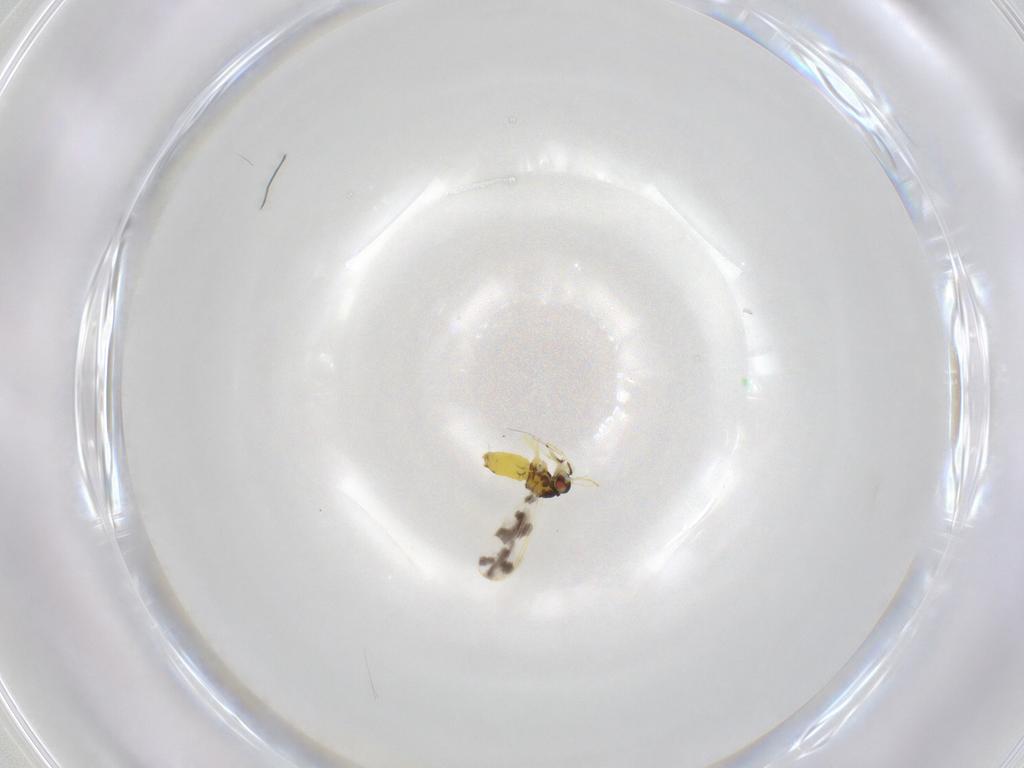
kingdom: Animalia
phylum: Arthropoda
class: Insecta
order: Hemiptera
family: Aleyrodidae
